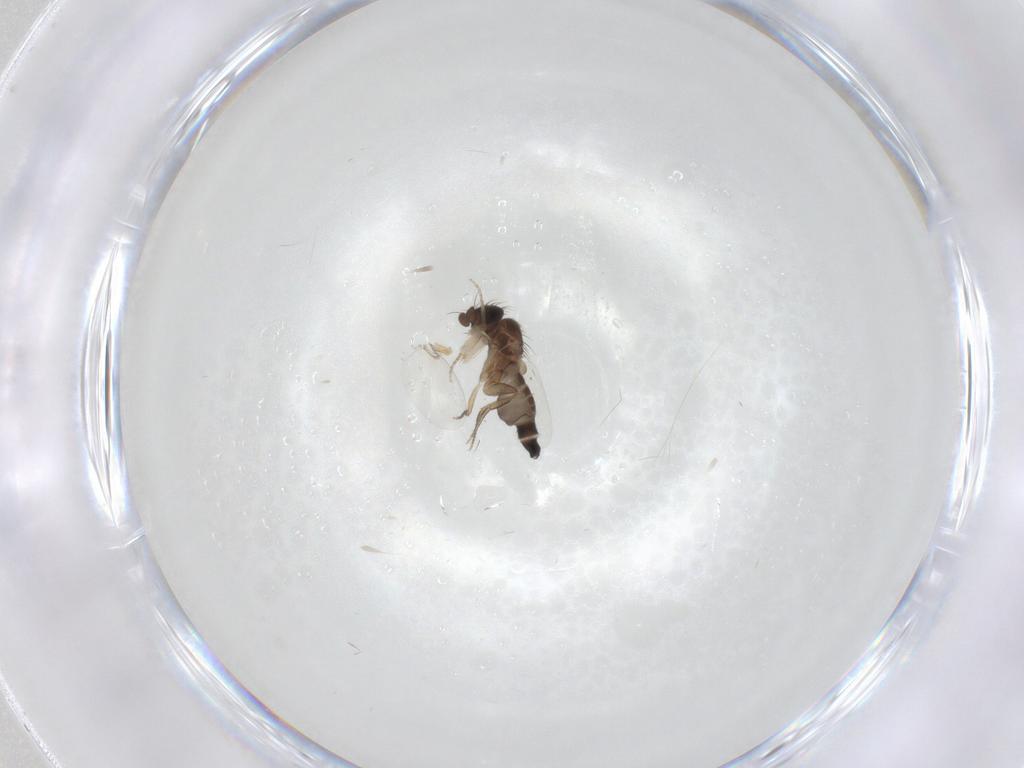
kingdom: Animalia
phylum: Arthropoda
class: Insecta
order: Diptera
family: Phoridae
